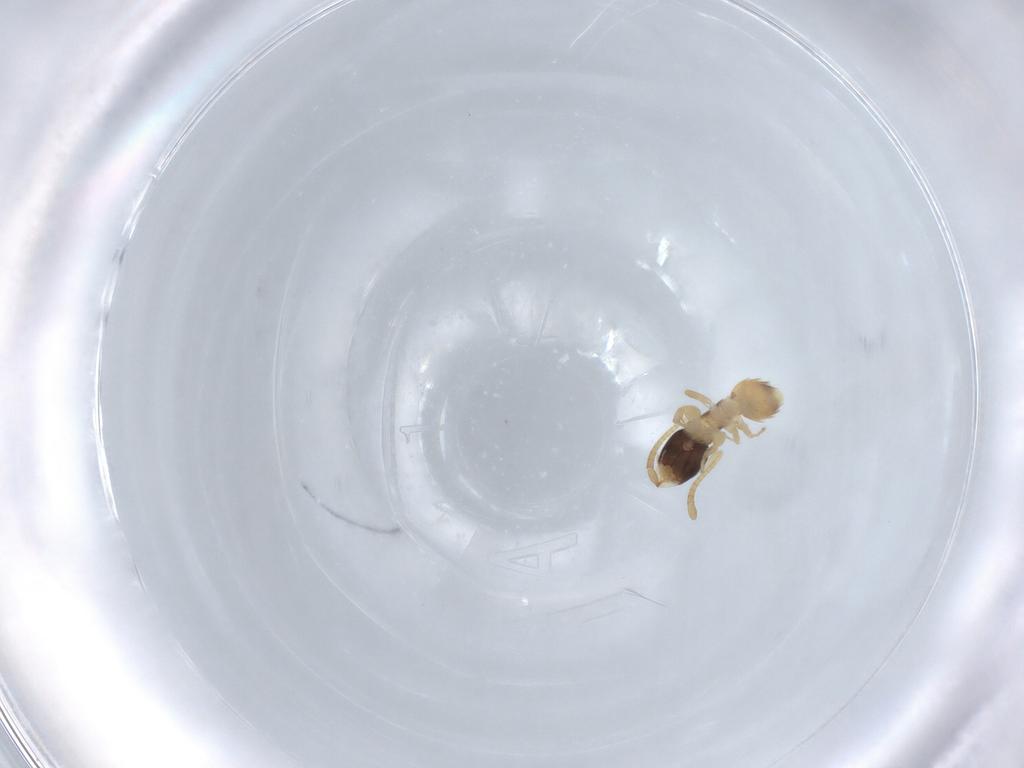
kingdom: Animalia
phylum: Arthropoda
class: Insecta
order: Hymenoptera
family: Formicidae
